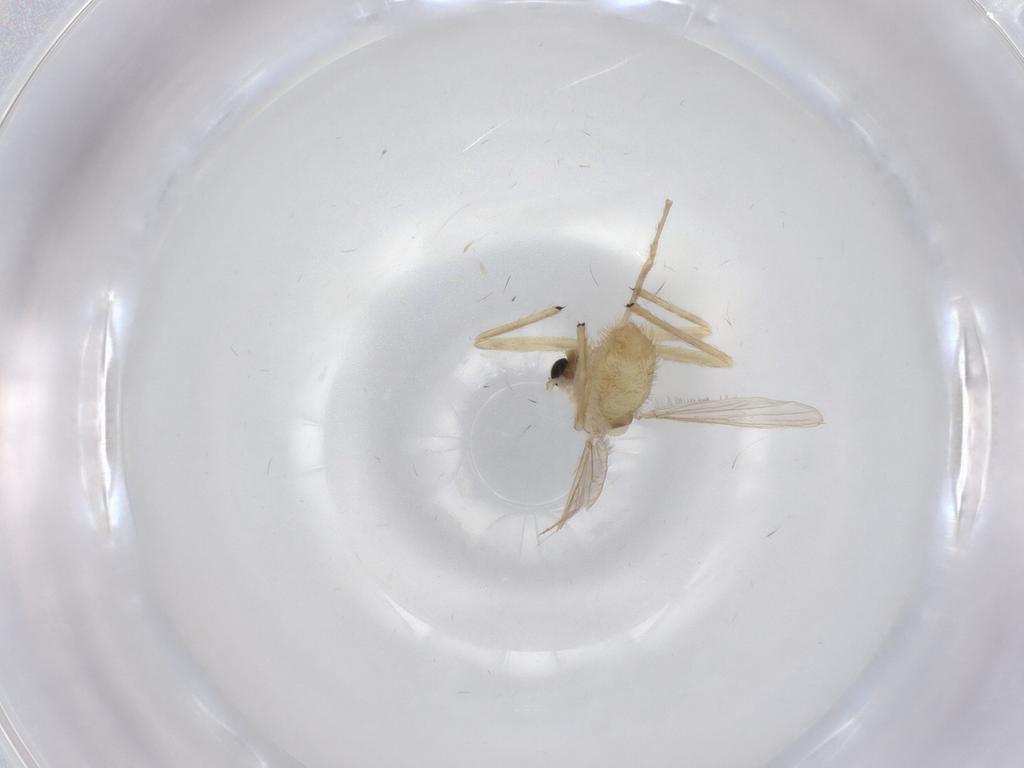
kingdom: Animalia
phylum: Arthropoda
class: Insecta
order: Diptera
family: Chironomidae
